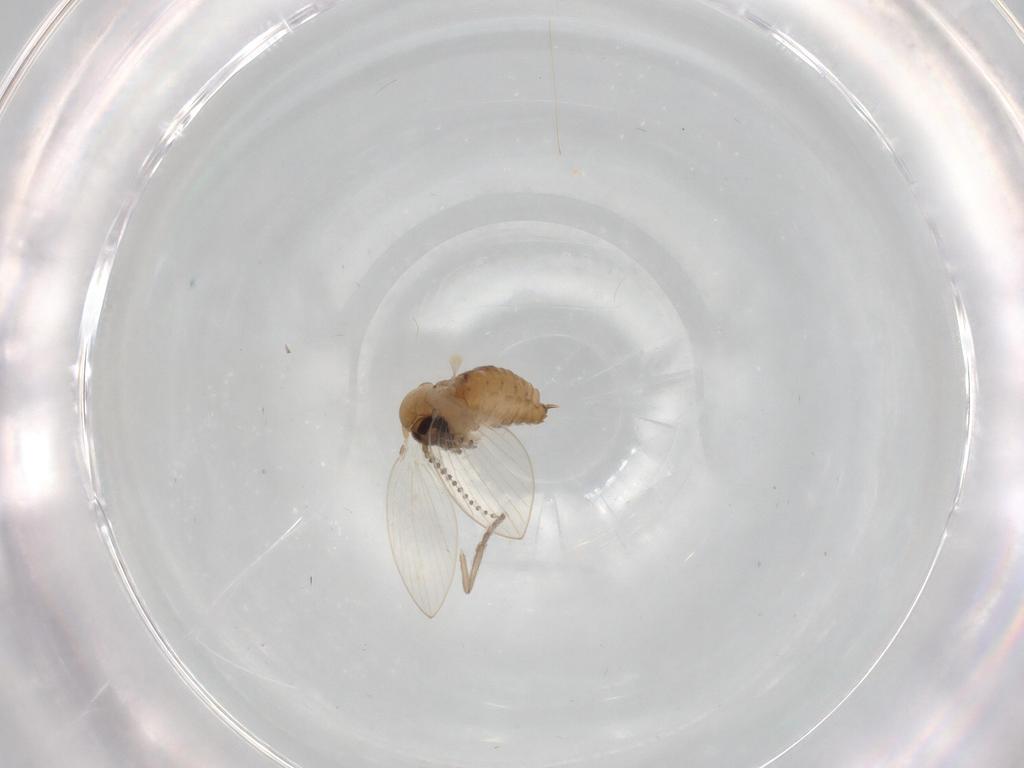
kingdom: Animalia
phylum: Arthropoda
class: Insecta
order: Diptera
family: Psychodidae
